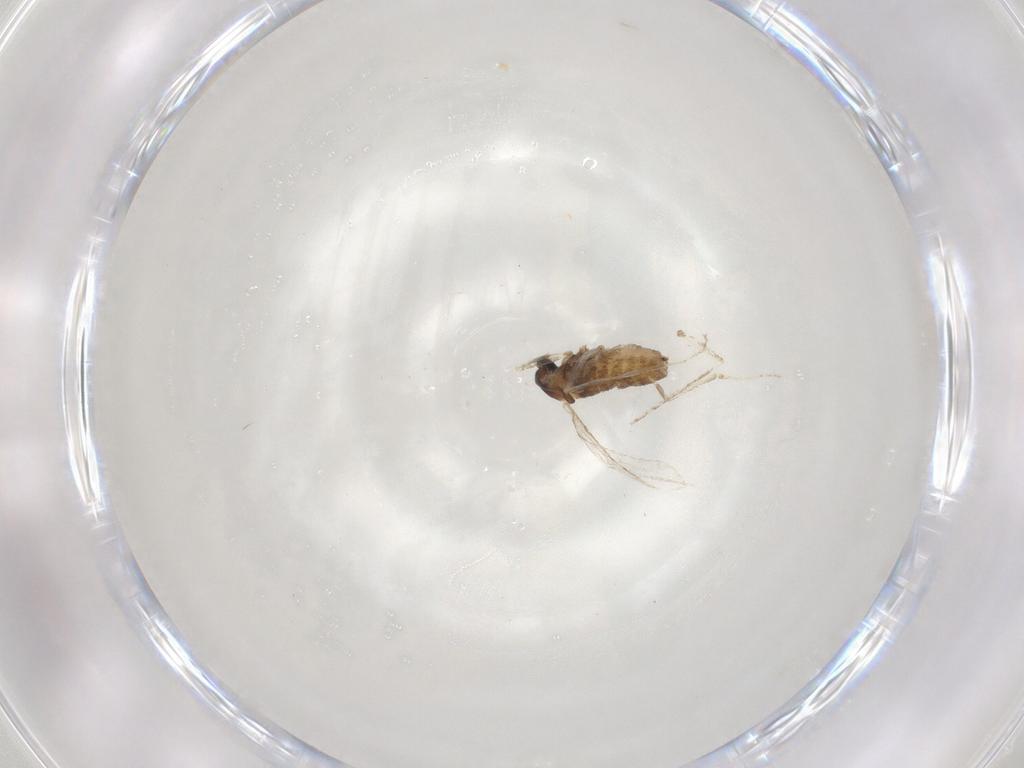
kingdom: Animalia
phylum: Arthropoda
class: Insecta
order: Diptera
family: Cecidomyiidae
